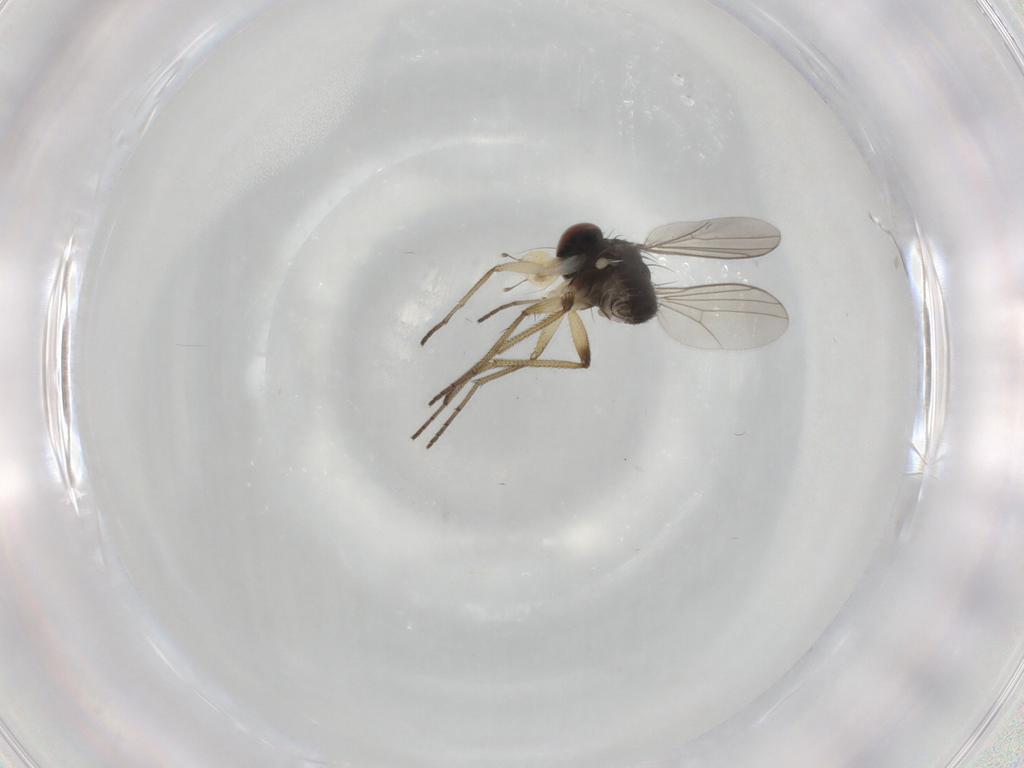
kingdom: Animalia
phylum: Arthropoda
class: Insecta
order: Diptera
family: Dolichopodidae
